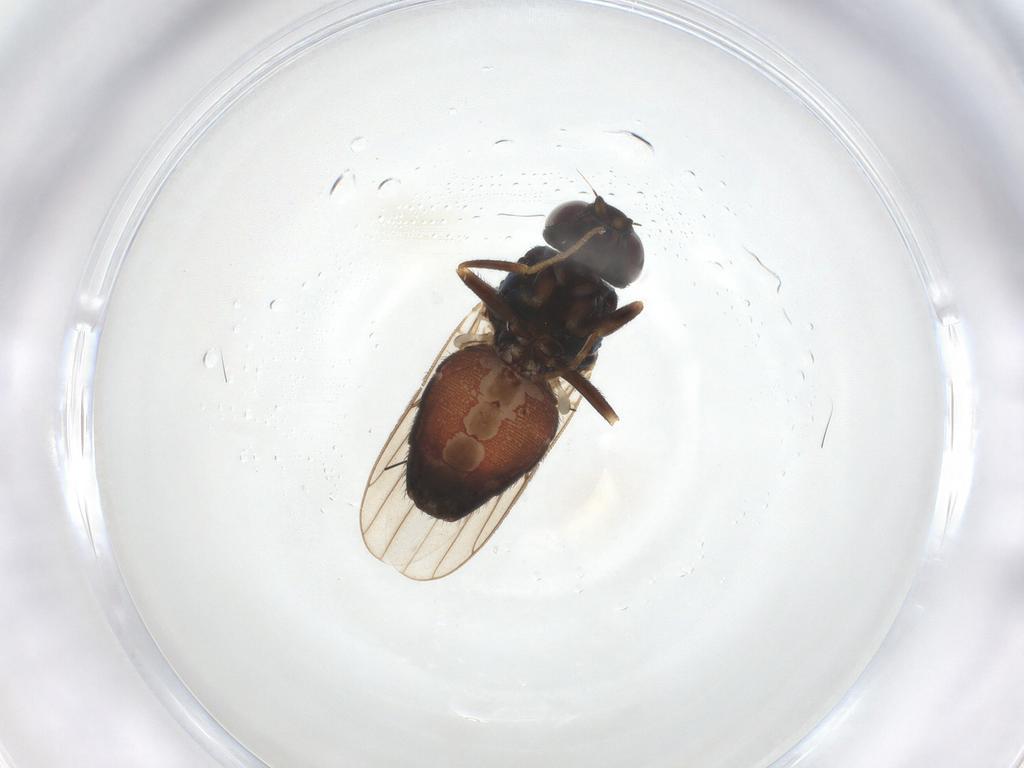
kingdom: Animalia
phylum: Arthropoda
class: Insecta
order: Diptera
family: Chloropidae
